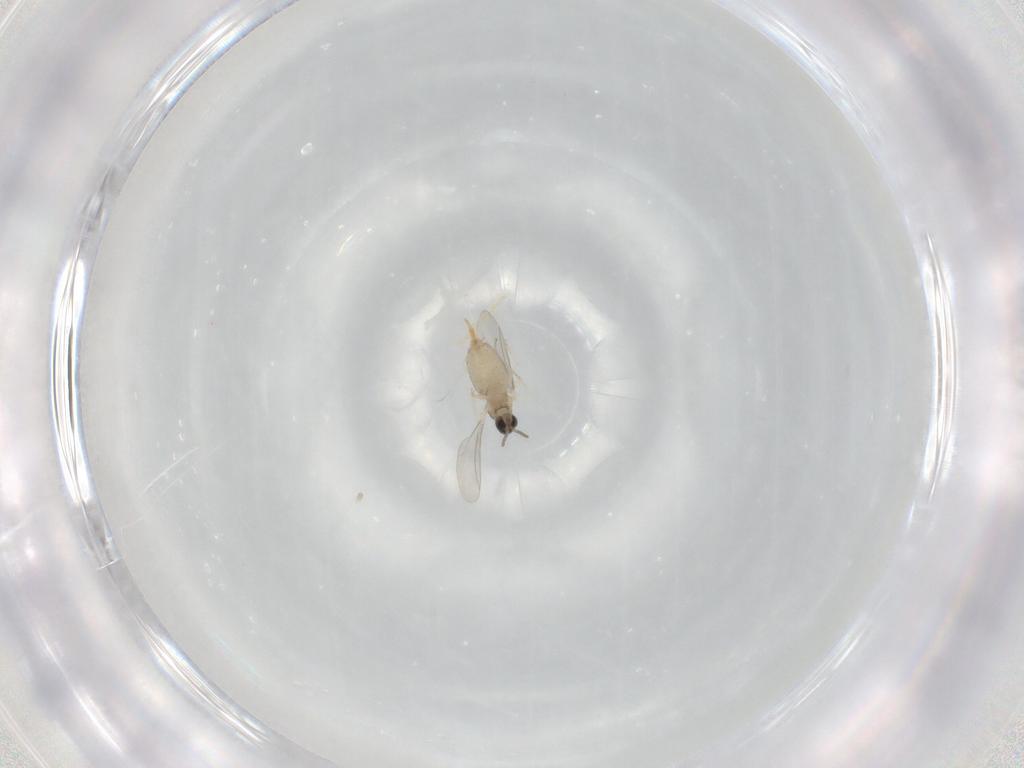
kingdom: Animalia
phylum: Arthropoda
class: Insecta
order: Diptera
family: Cecidomyiidae
